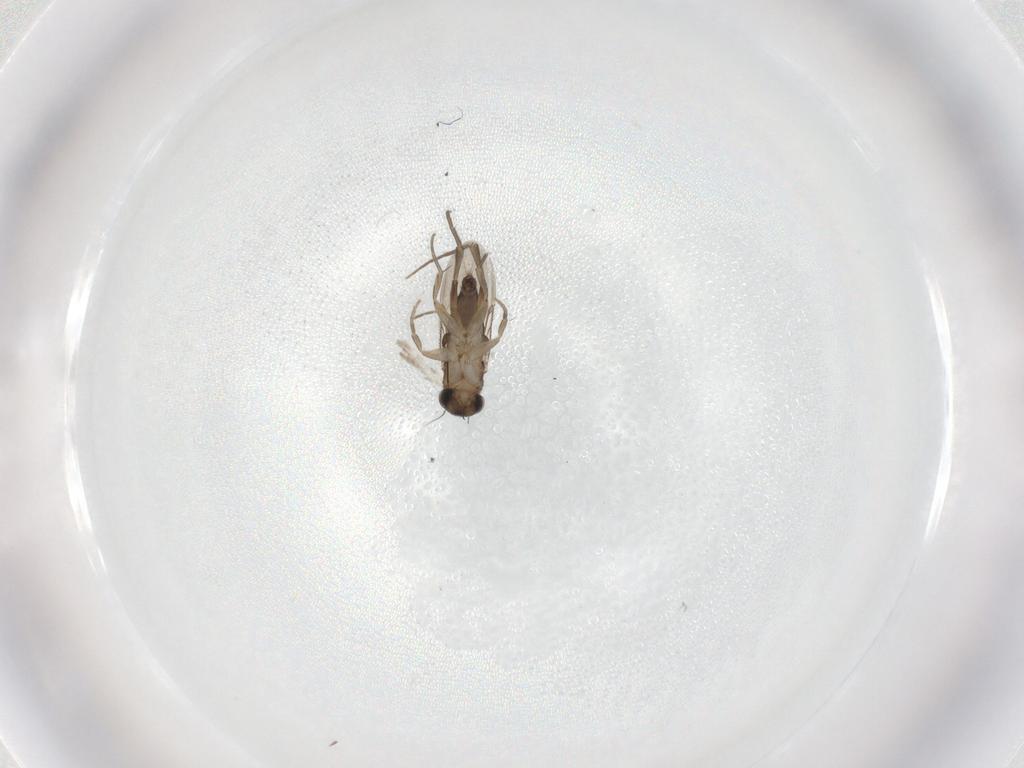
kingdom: Animalia
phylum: Arthropoda
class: Insecta
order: Diptera
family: Phoridae
